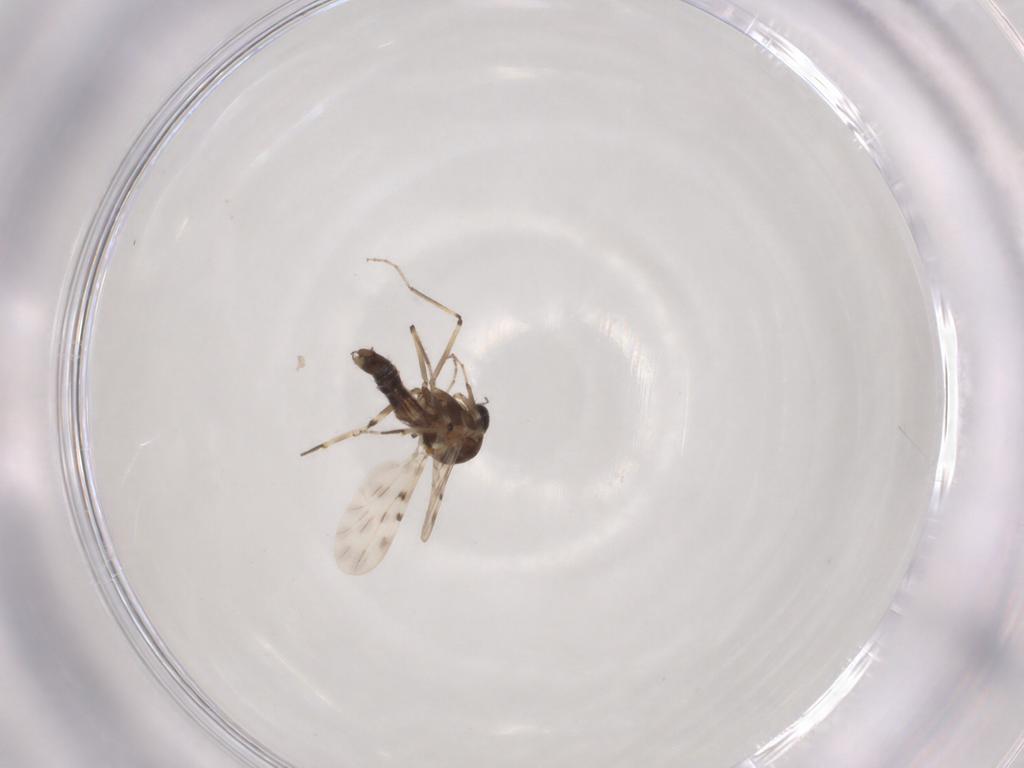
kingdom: Animalia
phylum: Arthropoda
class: Insecta
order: Diptera
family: Ceratopogonidae
